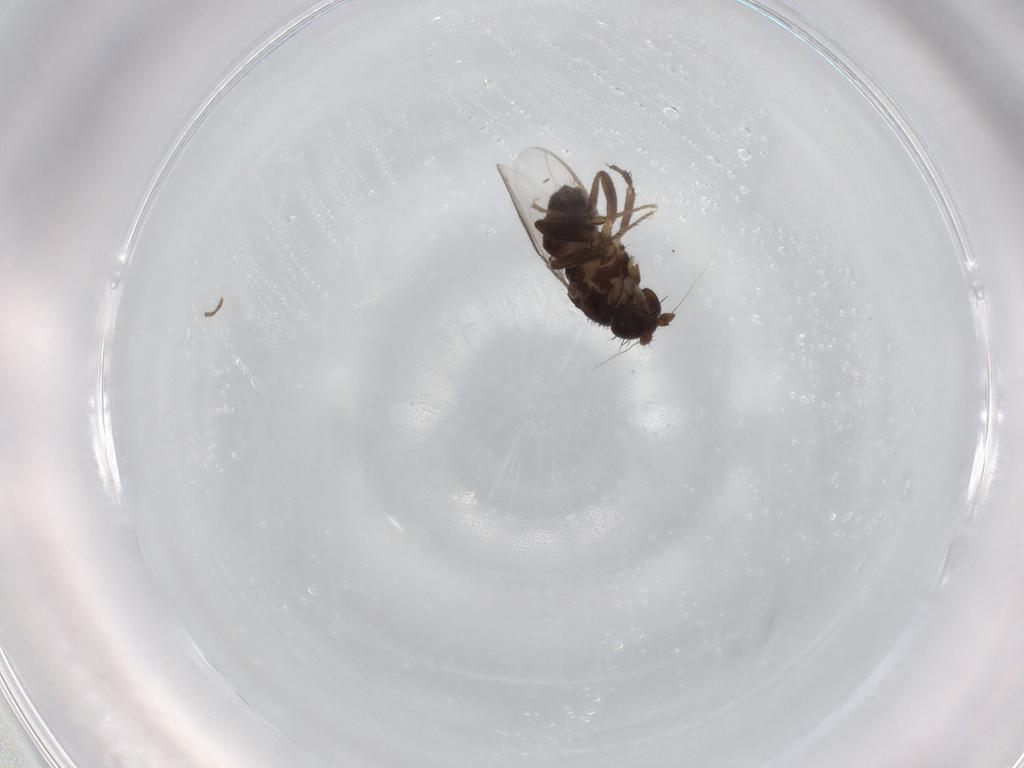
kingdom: Animalia
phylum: Arthropoda
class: Insecta
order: Diptera
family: Sphaeroceridae
